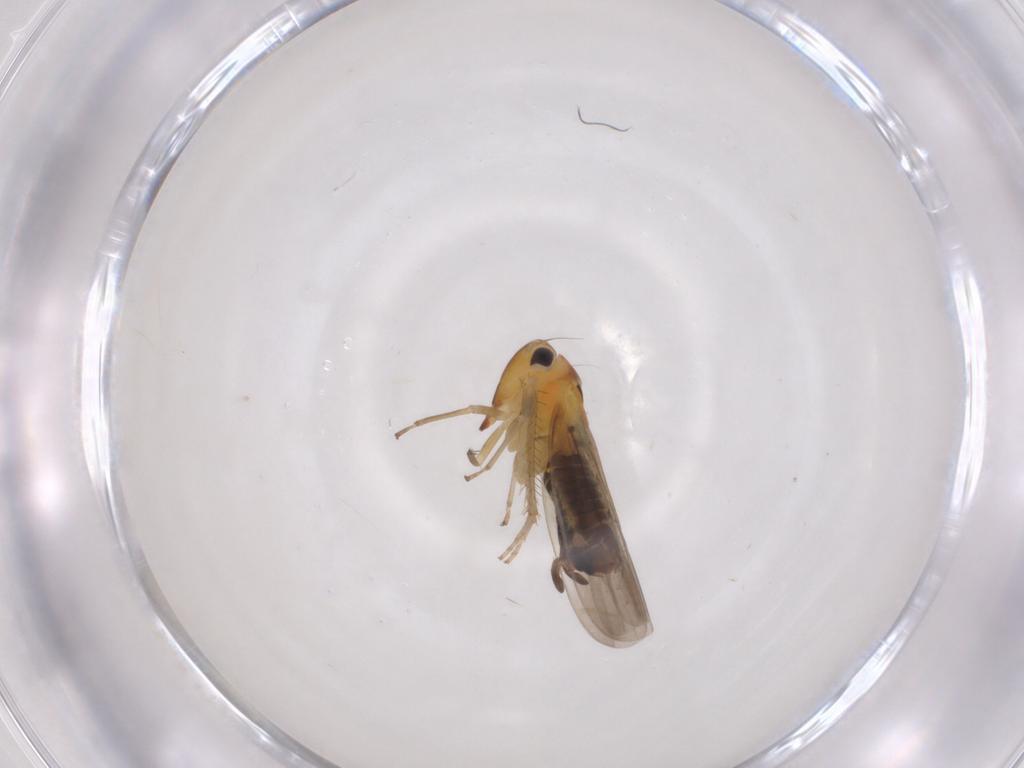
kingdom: Animalia
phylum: Arthropoda
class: Insecta
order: Hemiptera
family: Cicadellidae
